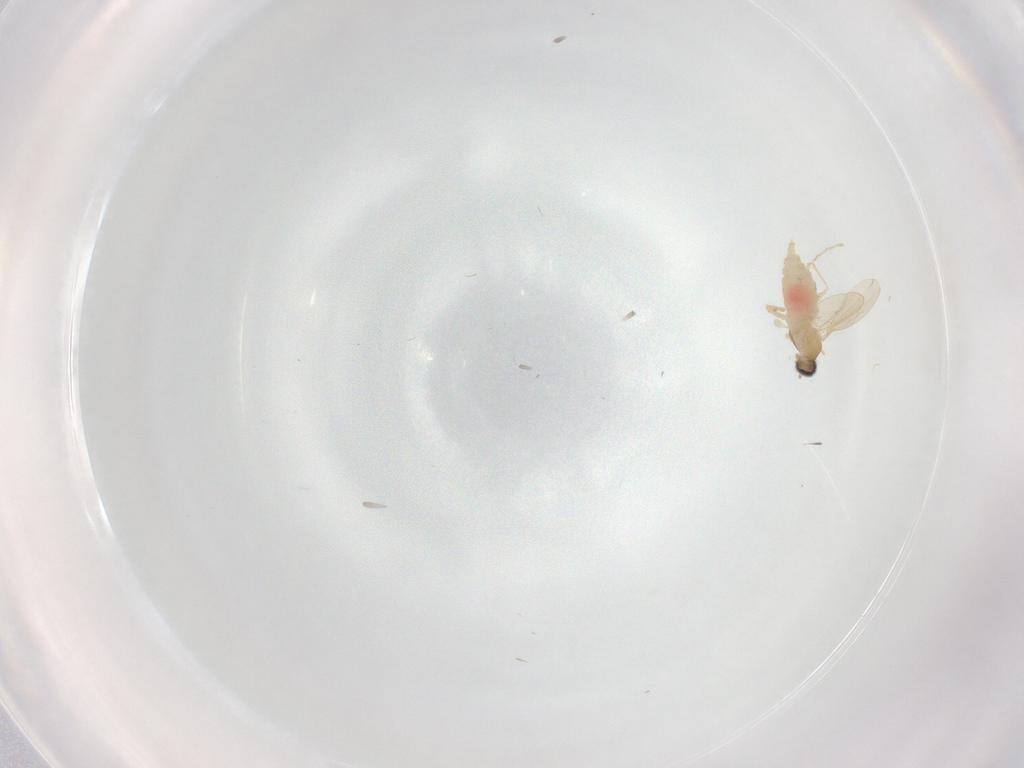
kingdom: Animalia
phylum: Arthropoda
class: Insecta
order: Diptera
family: Cecidomyiidae
